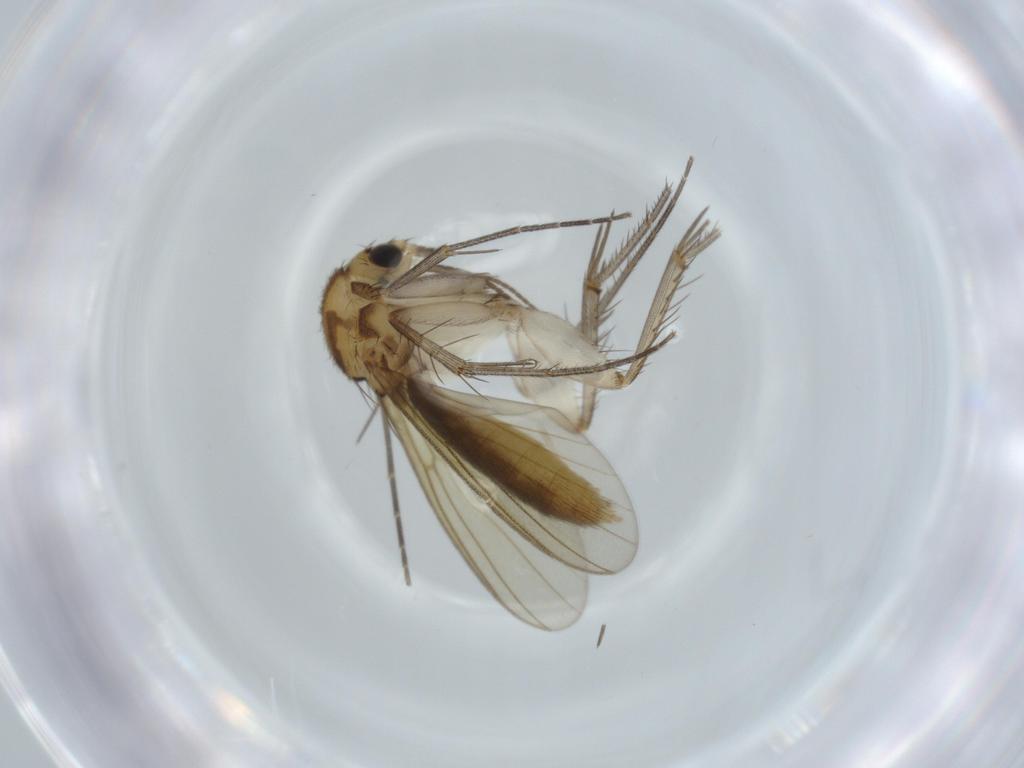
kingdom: Animalia
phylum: Arthropoda
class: Insecta
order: Diptera
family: Mycetophilidae
